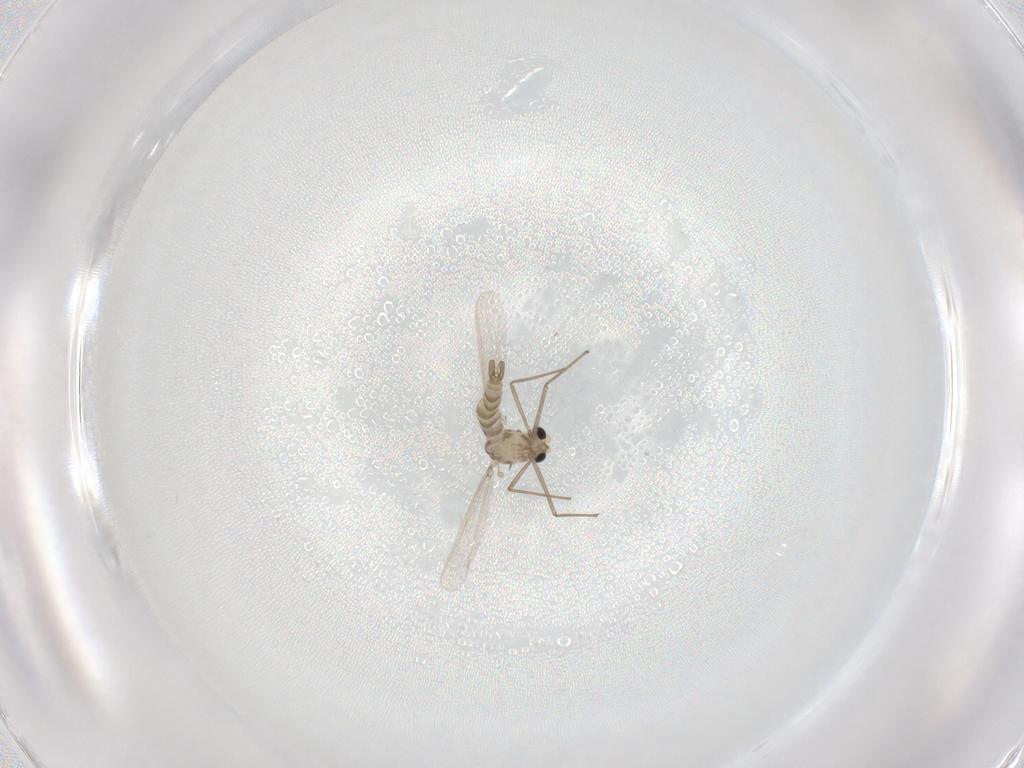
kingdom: Animalia
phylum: Arthropoda
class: Insecta
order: Diptera
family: Chironomidae
